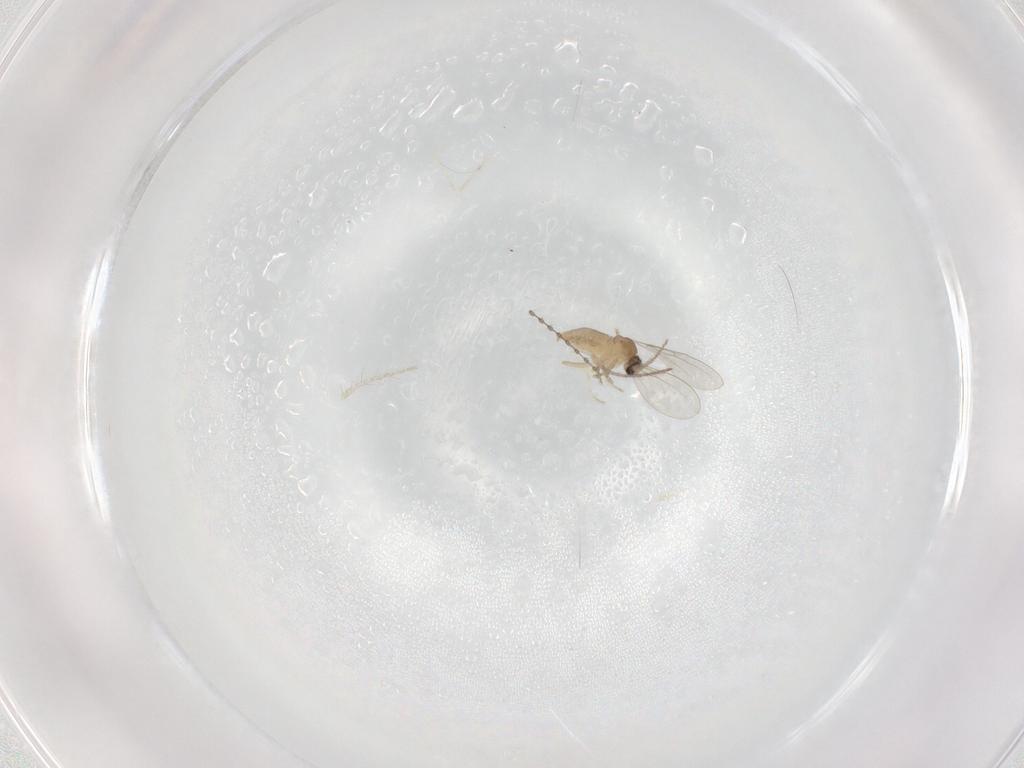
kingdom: Animalia
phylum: Arthropoda
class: Insecta
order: Diptera
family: Cecidomyiidae
